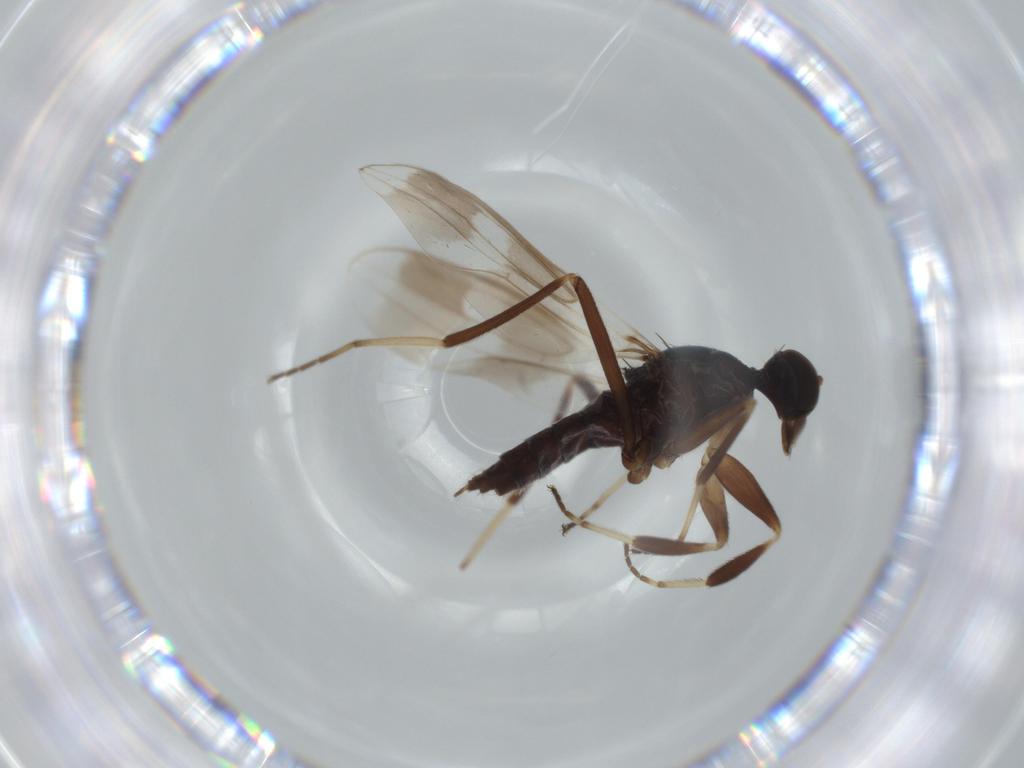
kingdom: Animalia
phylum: Arthropoda
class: Insecta
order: Diptera
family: Hybotidae
